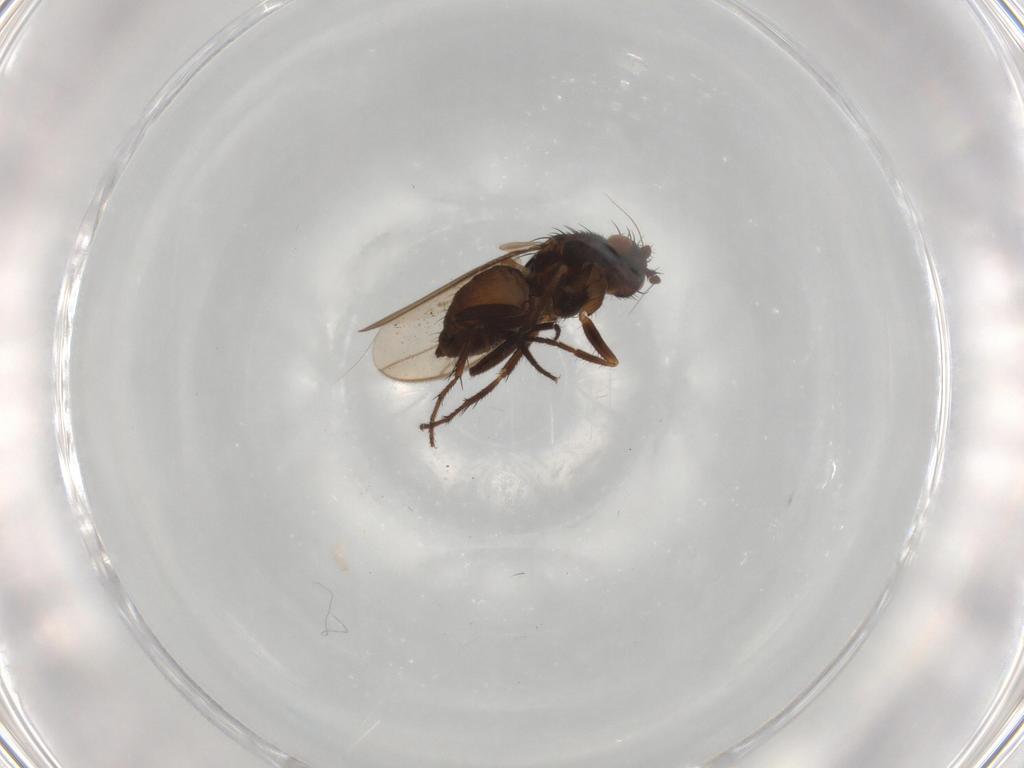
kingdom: Animalia
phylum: Arthropoda
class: Insecta
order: Diptera
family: Sphaeroceridae
